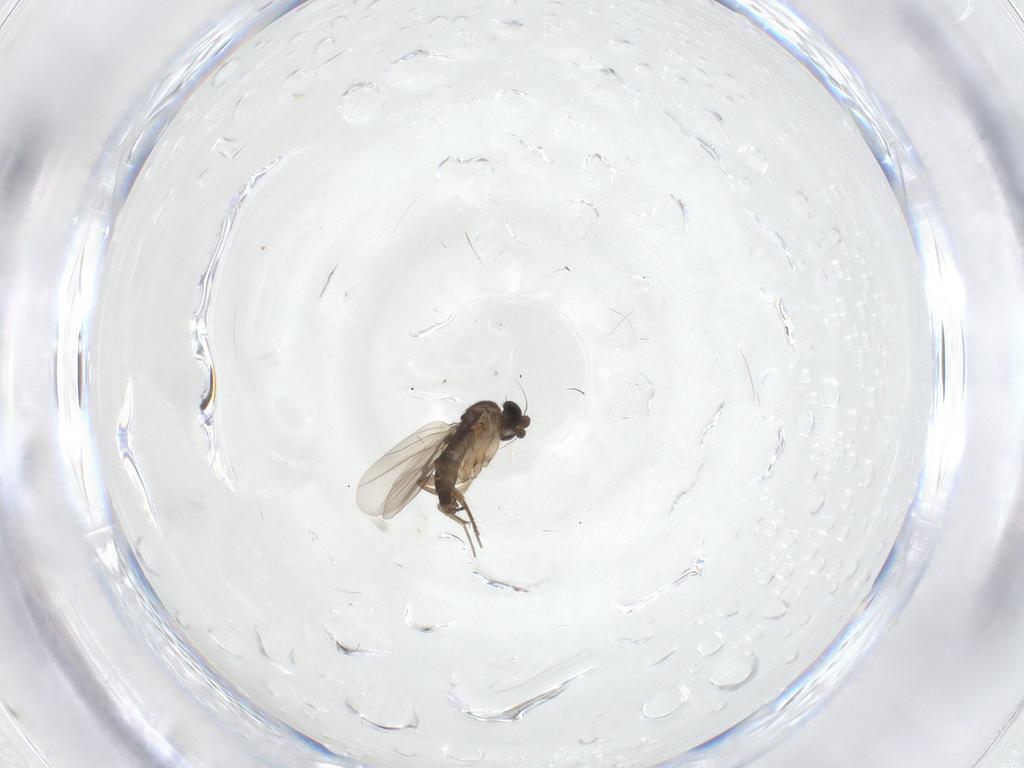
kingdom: Animalia
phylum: Arthropoda
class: Insecta
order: Diptera
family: Phoridae
